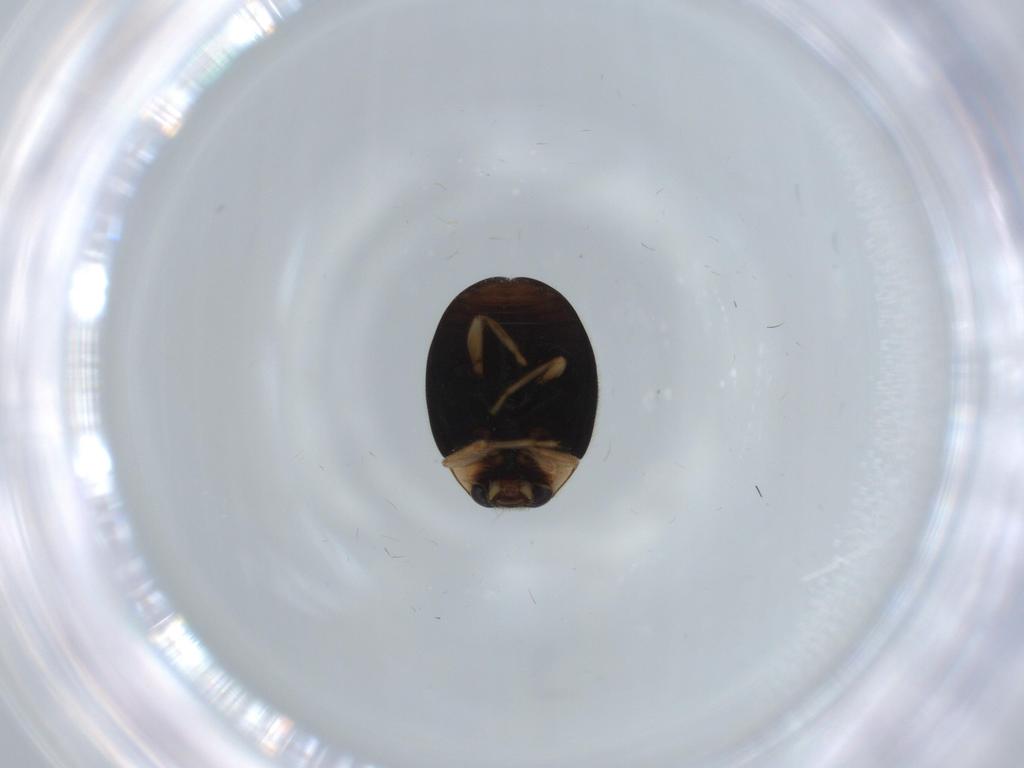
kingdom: Animalia
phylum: Arthropoda
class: Insecta
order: Coleoptera
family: Coccinellidae
